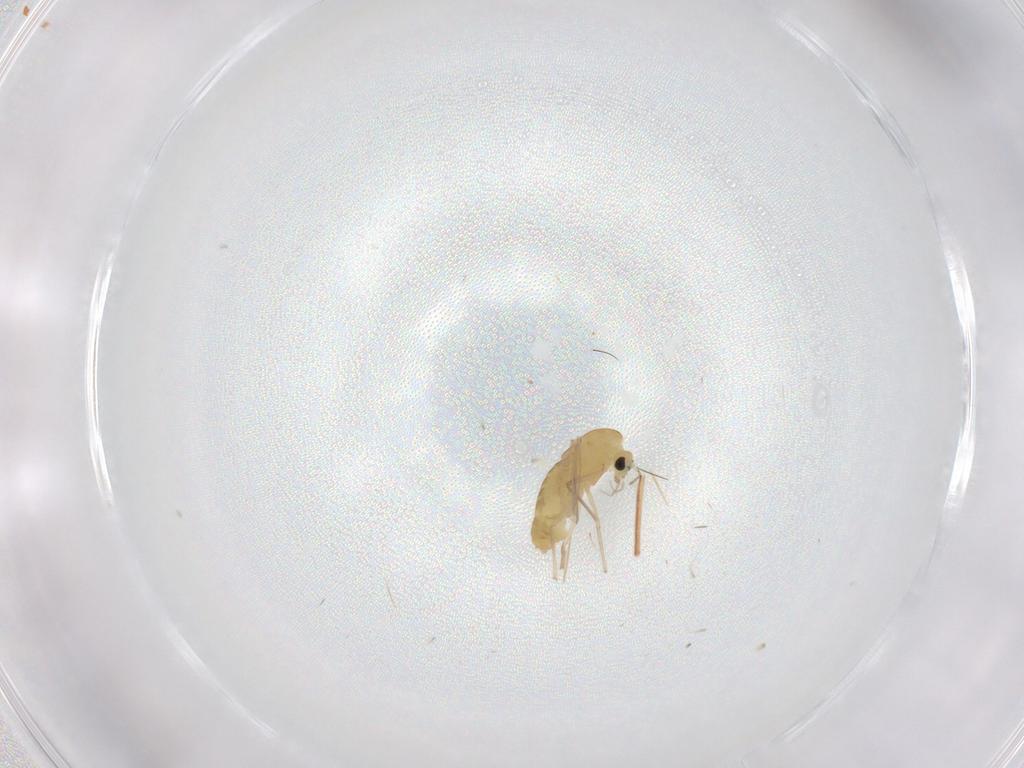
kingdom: Animalia
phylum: Arthropoda
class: Insecta
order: Diptera
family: Chironomidae
